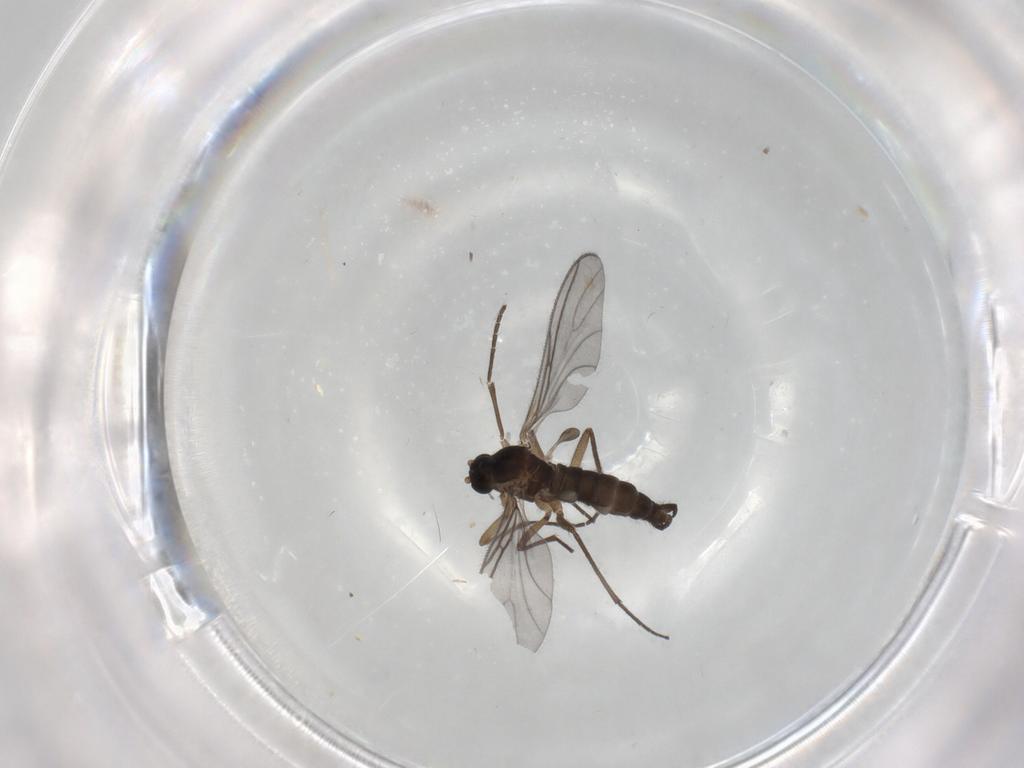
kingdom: Animalia
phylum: Arthropoda
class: Insecta
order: Diptera
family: Sciaridae
